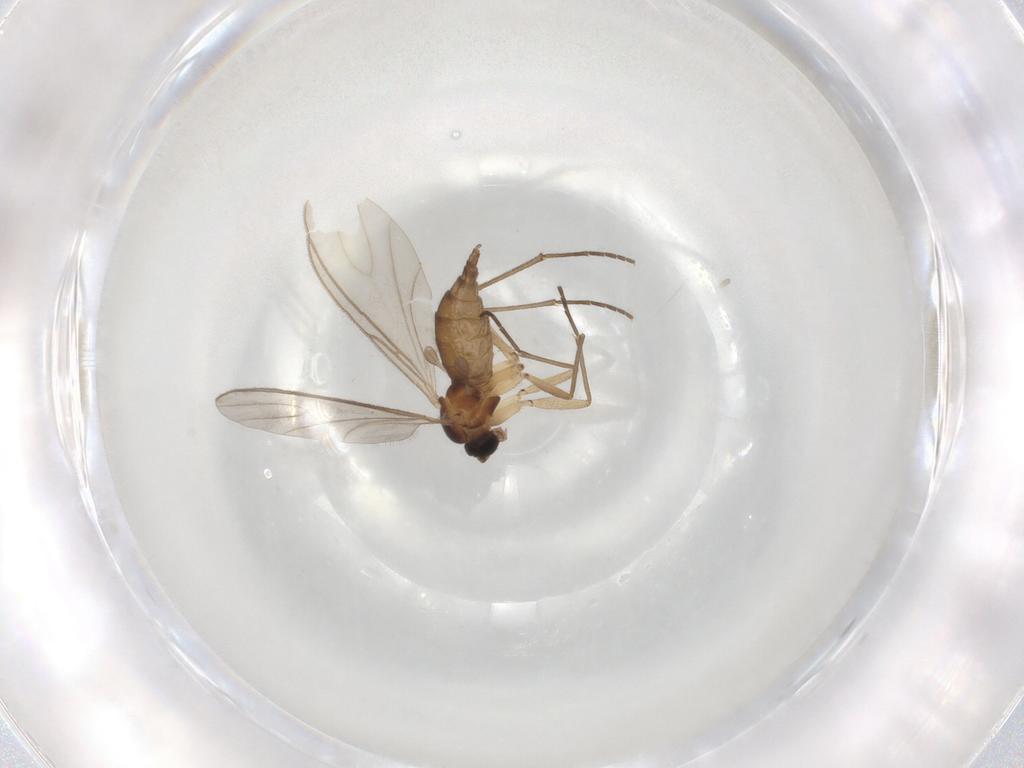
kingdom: Animalia
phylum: Arthropoda
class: Insecta
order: Diptera
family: Sciaridae
